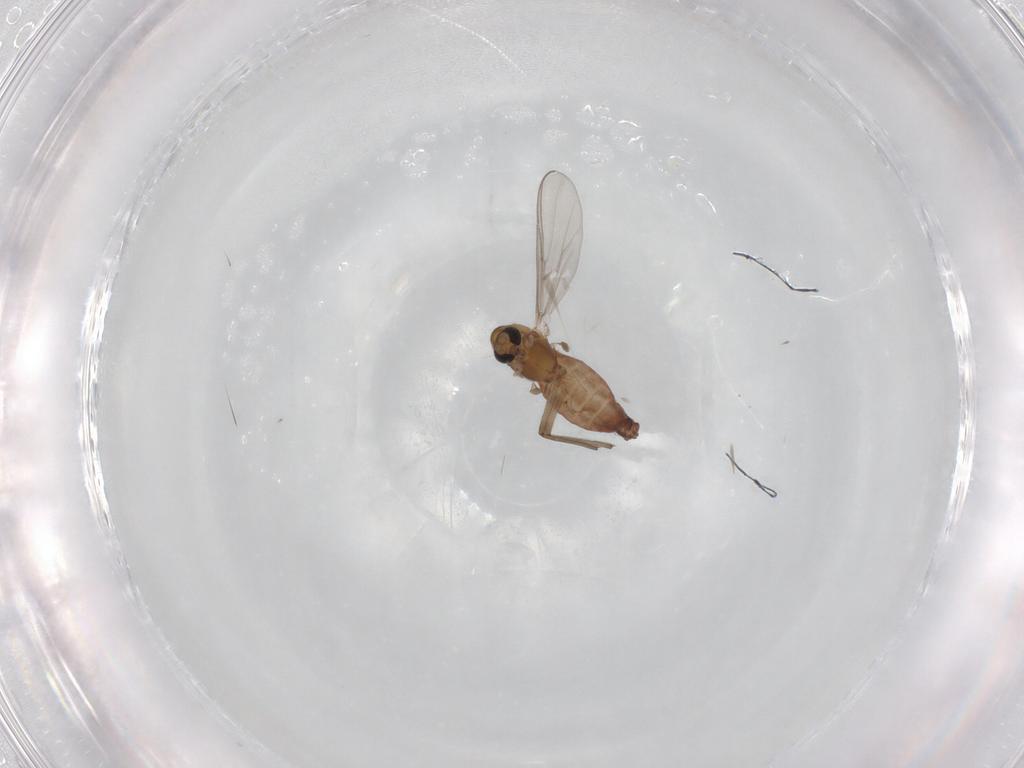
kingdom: Animalia
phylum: Arthropoda
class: Insecta
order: Diptera
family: Chironomidae
